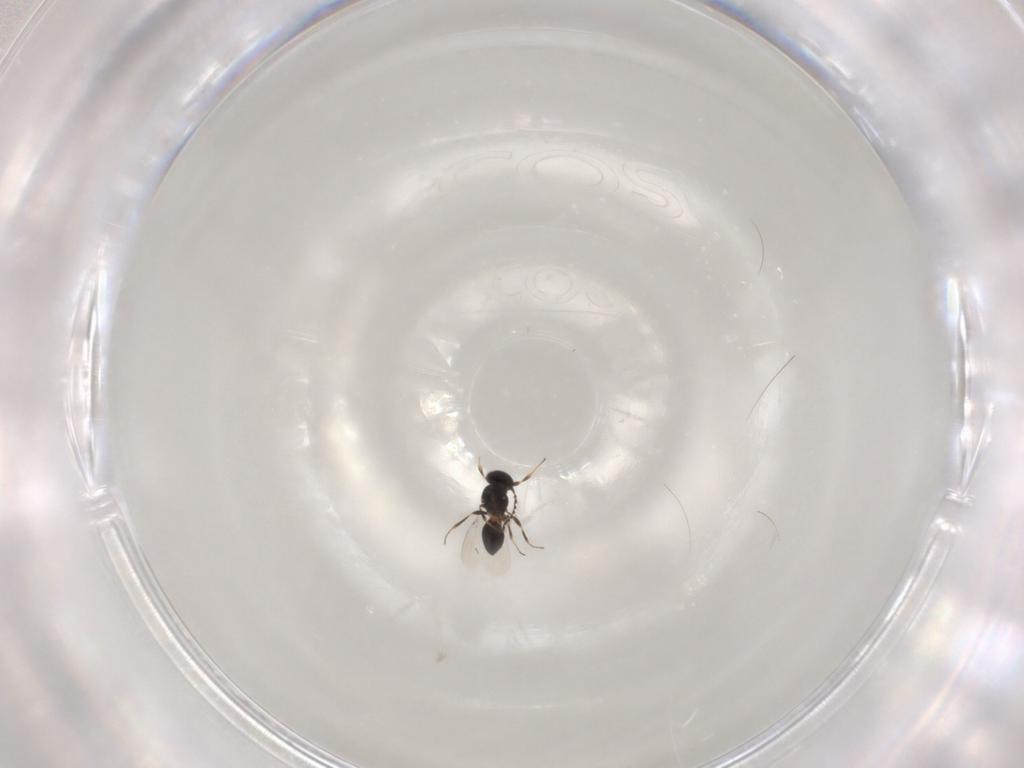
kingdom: Animalia
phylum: Arthropoda
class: Insecta
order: Hymenoptera
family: Platygastridae
